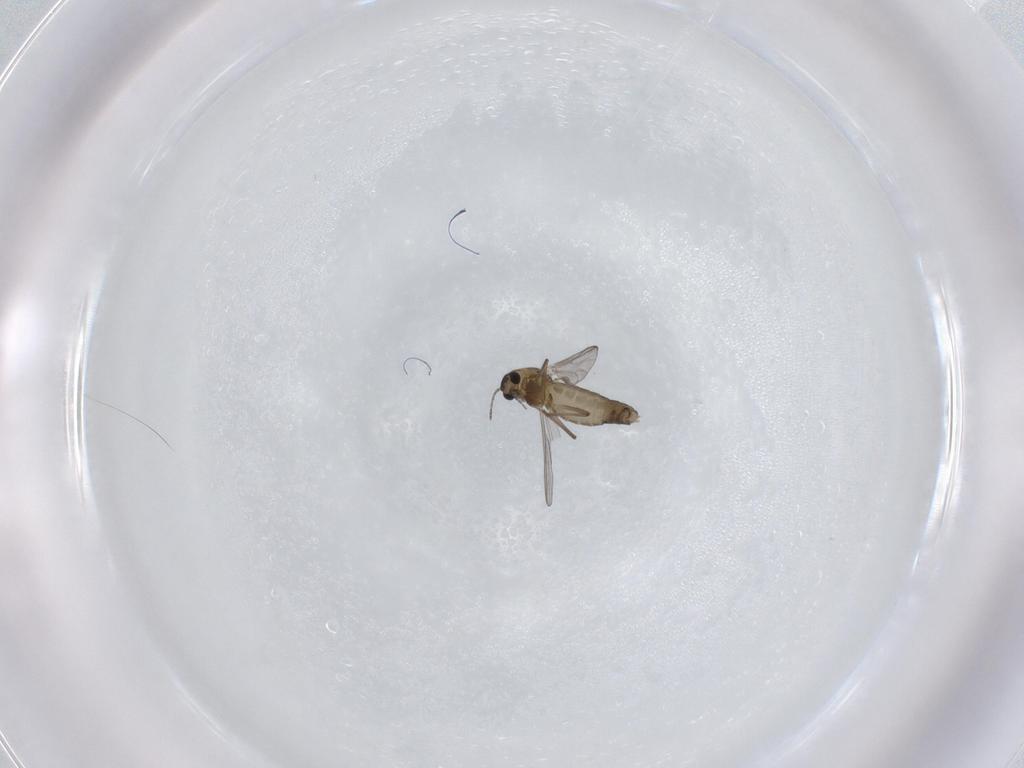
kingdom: Animalia
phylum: Arthropoda
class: Insecta
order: Diptera
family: Chironomidae
